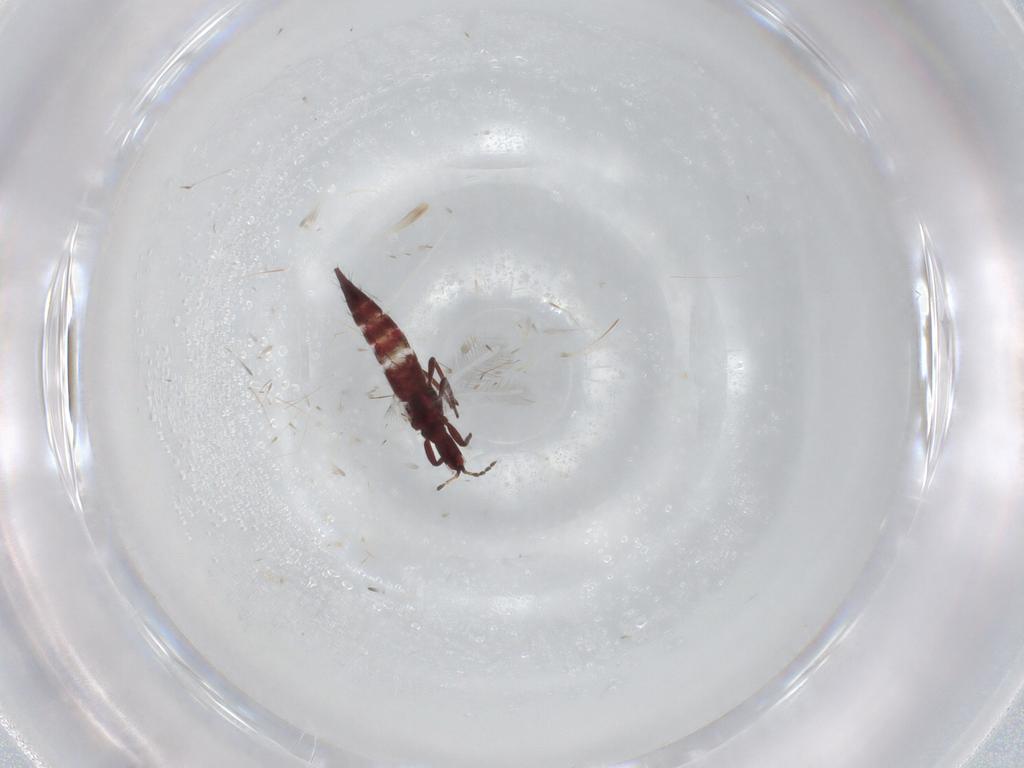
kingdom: Animalia
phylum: Arthropoda
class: Insecta
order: Thysanoptera
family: Phlaeothripidae
